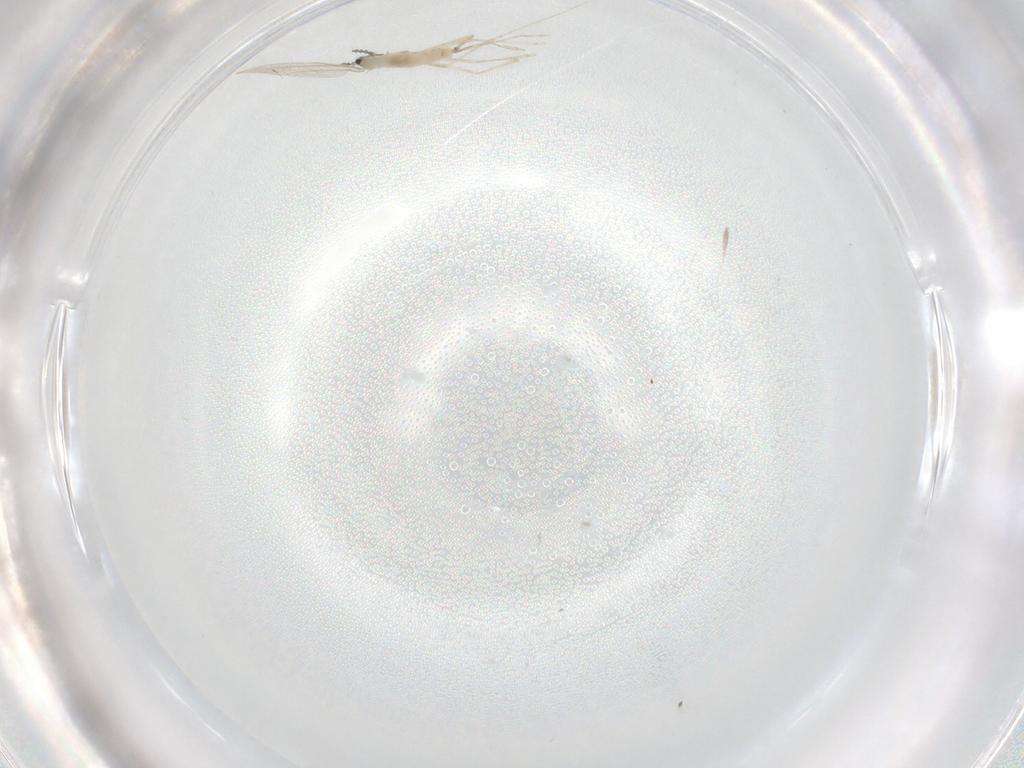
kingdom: Animalia
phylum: Arthropoda
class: Insecta
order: Diptera
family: Cecidomyiidae
